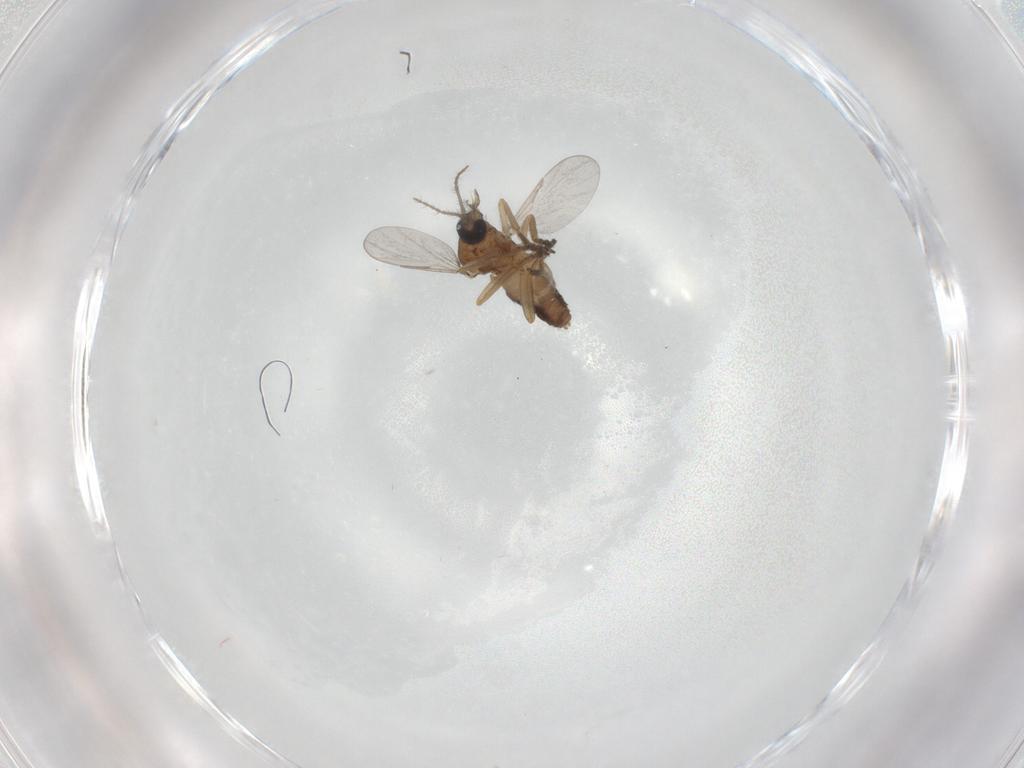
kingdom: Animalia
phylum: Arthropoda
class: Insecta
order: Diptera
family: Ceratopogonidae
